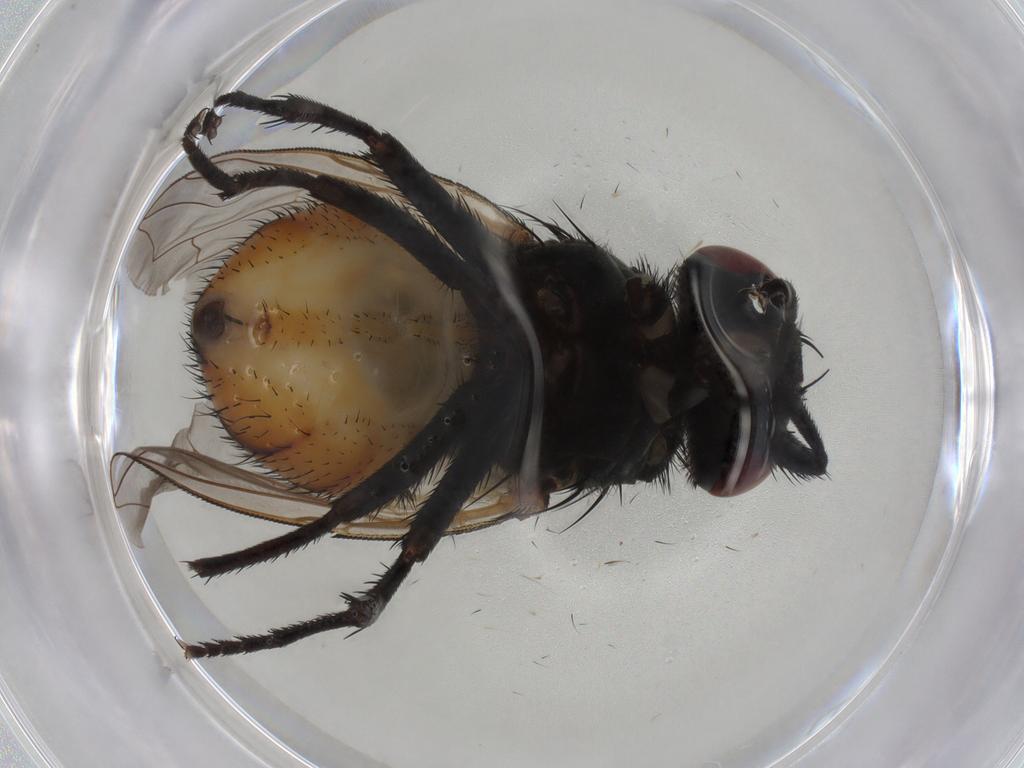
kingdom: Animalia
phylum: Arthropoda
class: Insecta
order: Diptera
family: Muscidae
